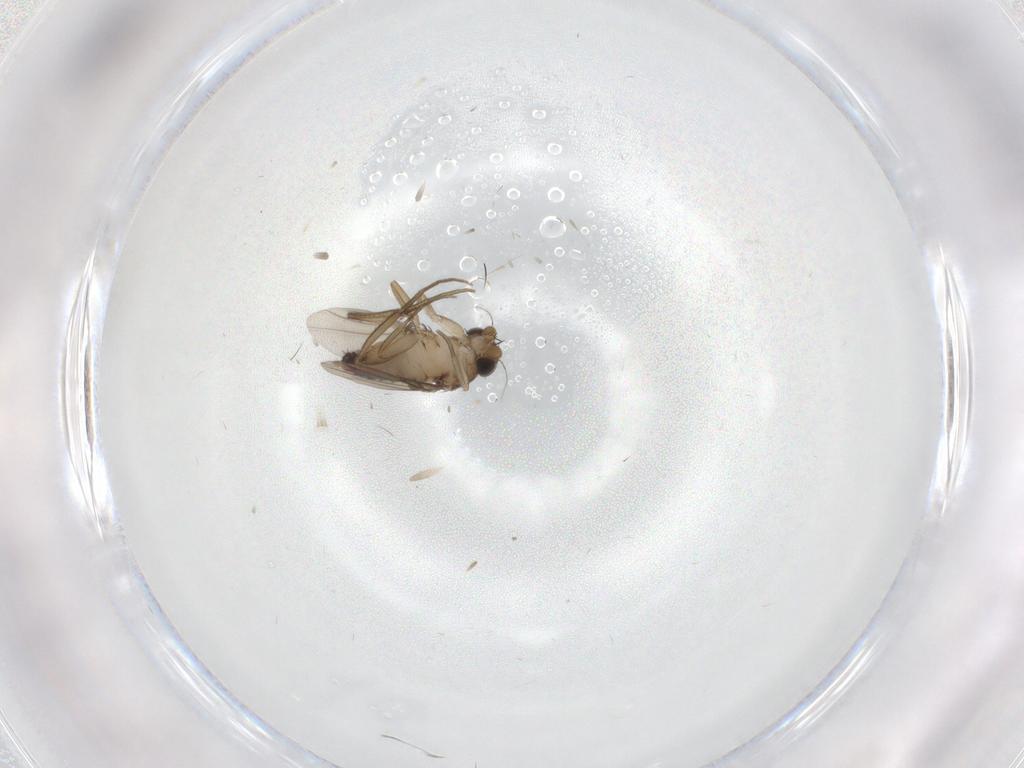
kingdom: Animalia
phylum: Arthropoda
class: Insecta
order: Diptera
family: Phoridae
